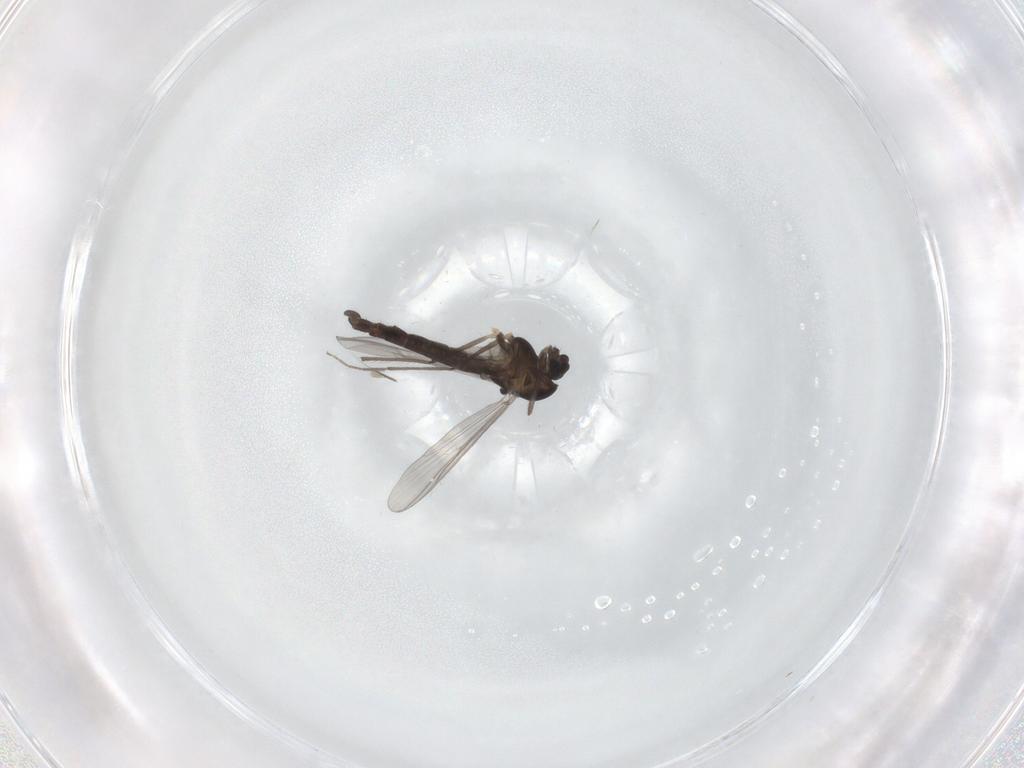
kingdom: Animalia
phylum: Arthropoda
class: Insecta
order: Diptera
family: Chironomidae
